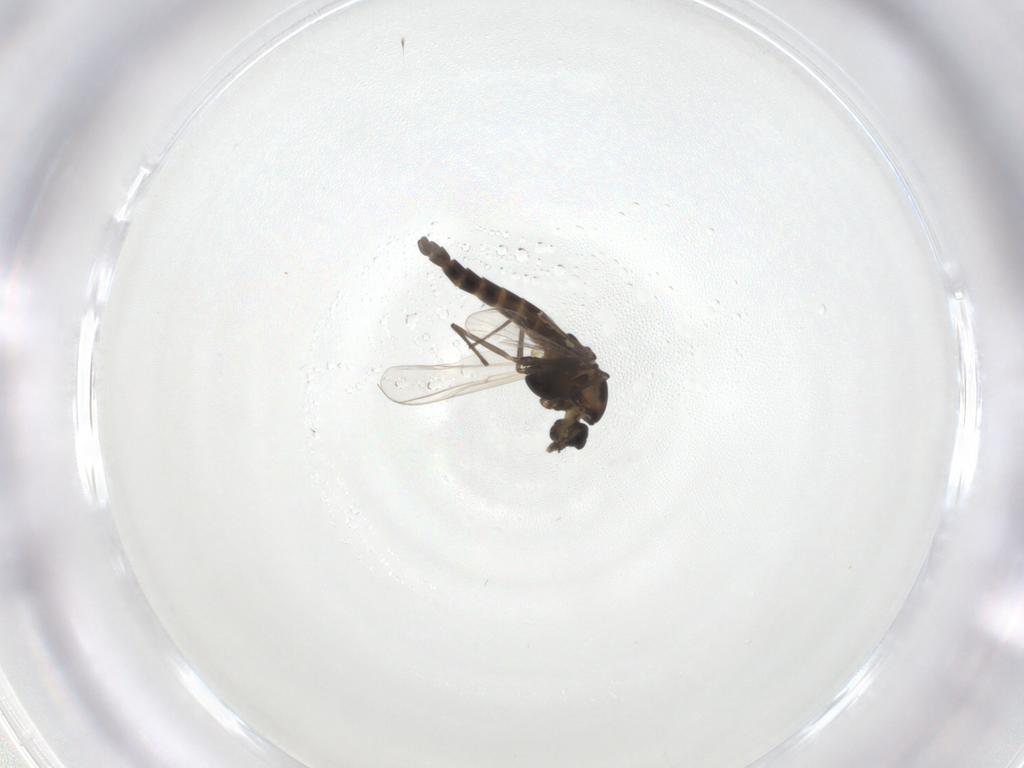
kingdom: Animalia
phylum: Arthropoda
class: Insecta
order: Diptera
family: Chironomidae
